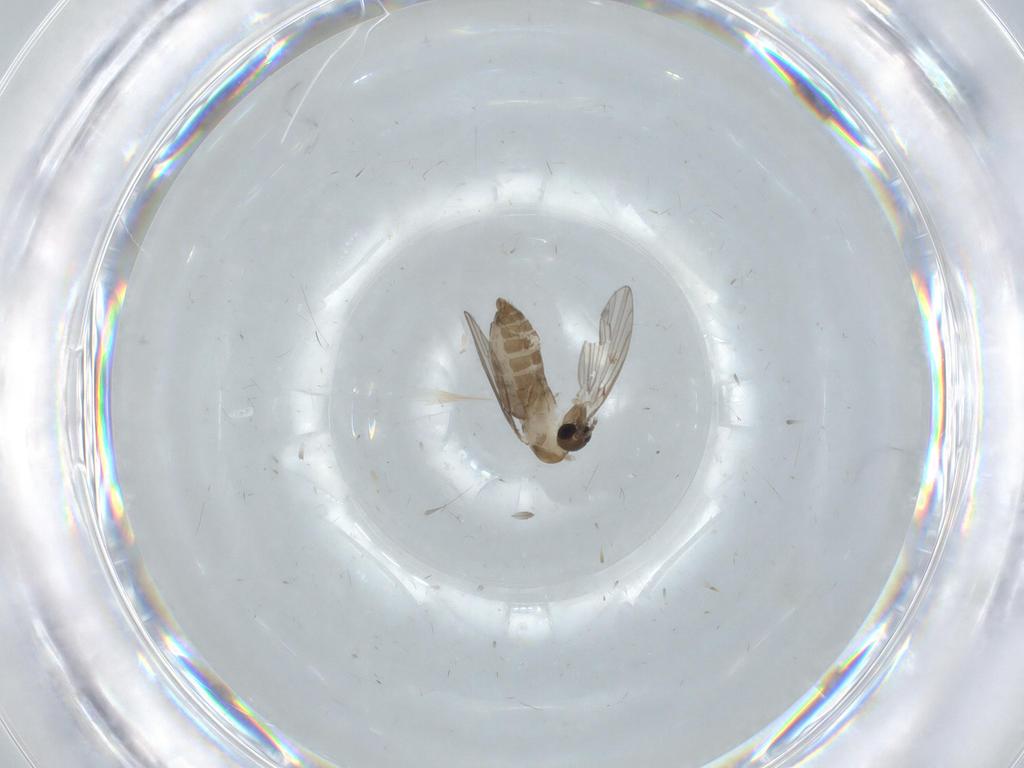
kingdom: Animalia
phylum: Arthropoda
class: Insecta
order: Diptera
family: Psychodidae
